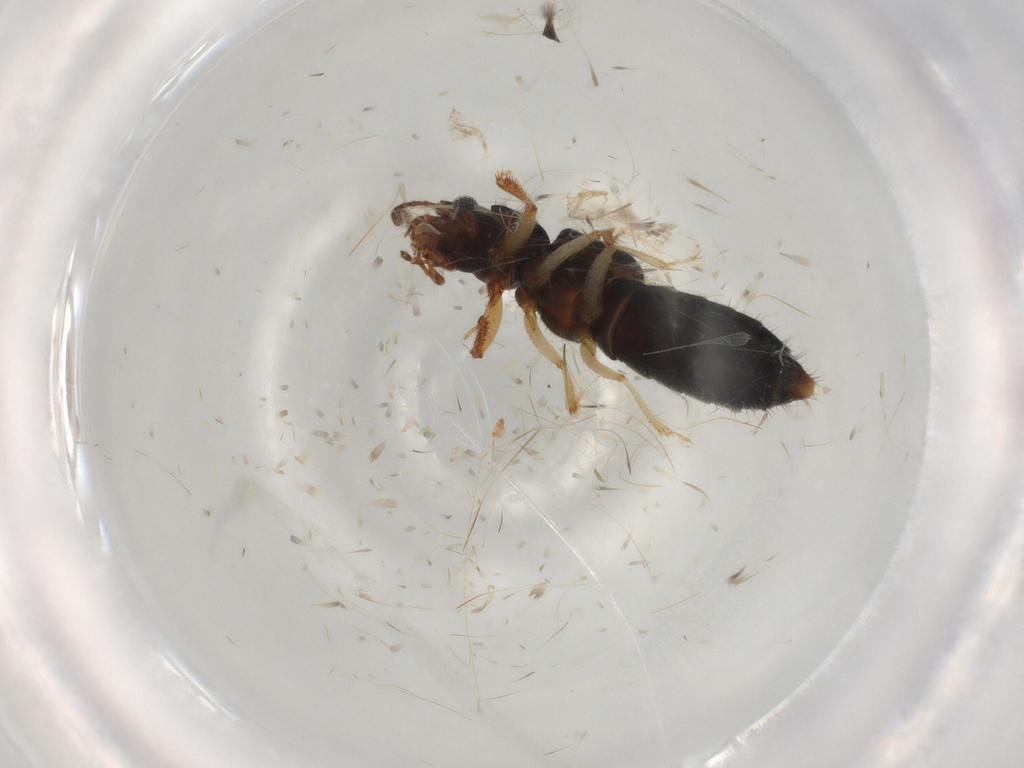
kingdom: Animalia
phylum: Arthropoda
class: Insecta
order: Coleoptera
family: Staphylinidae
